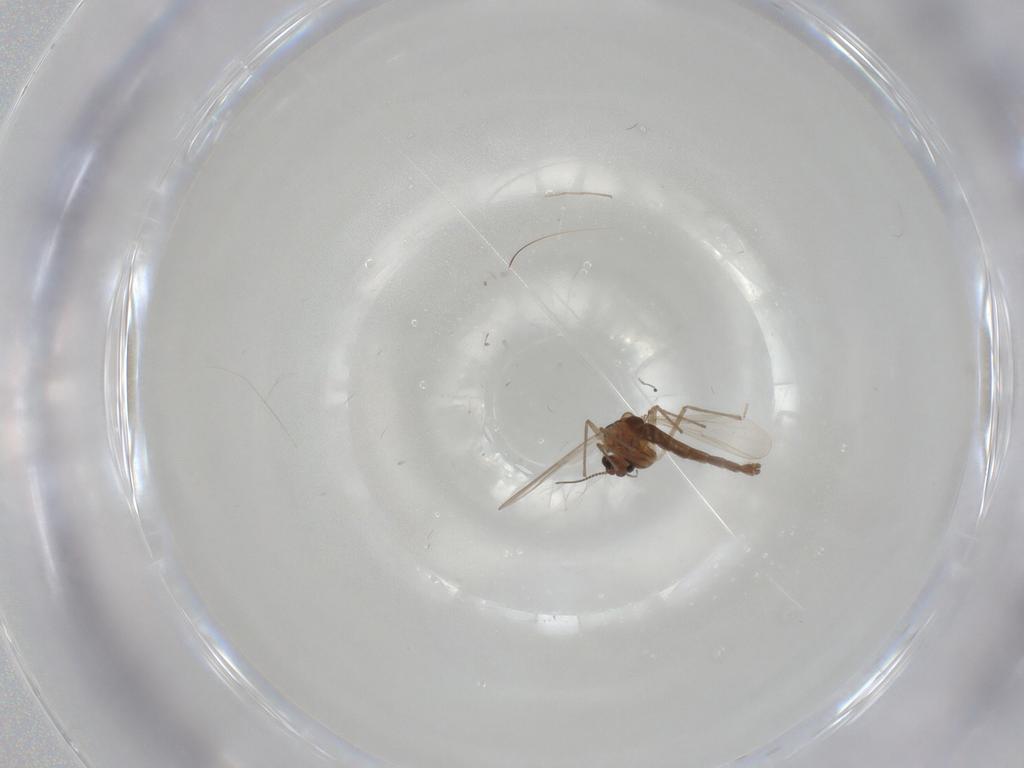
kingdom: Animalia
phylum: Arthropoda
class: Insecta
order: Diptera
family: Chironomidae
